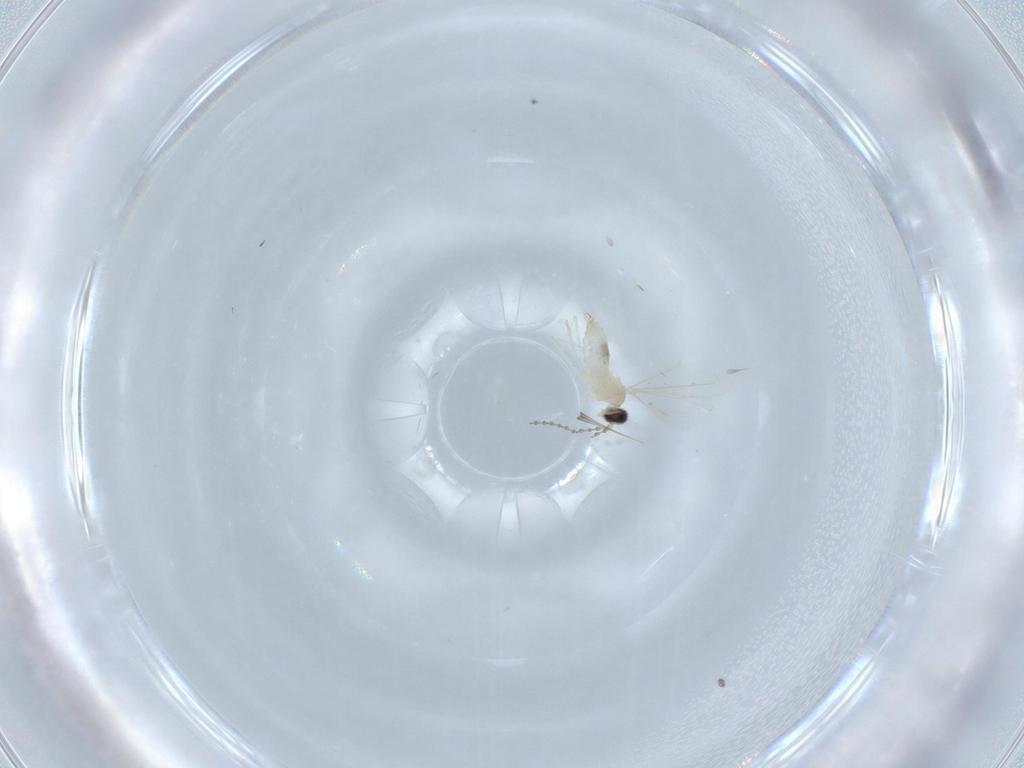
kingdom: Animalia
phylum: Arthropoda
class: Insecta
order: Diptera
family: Cecidomyiidae
